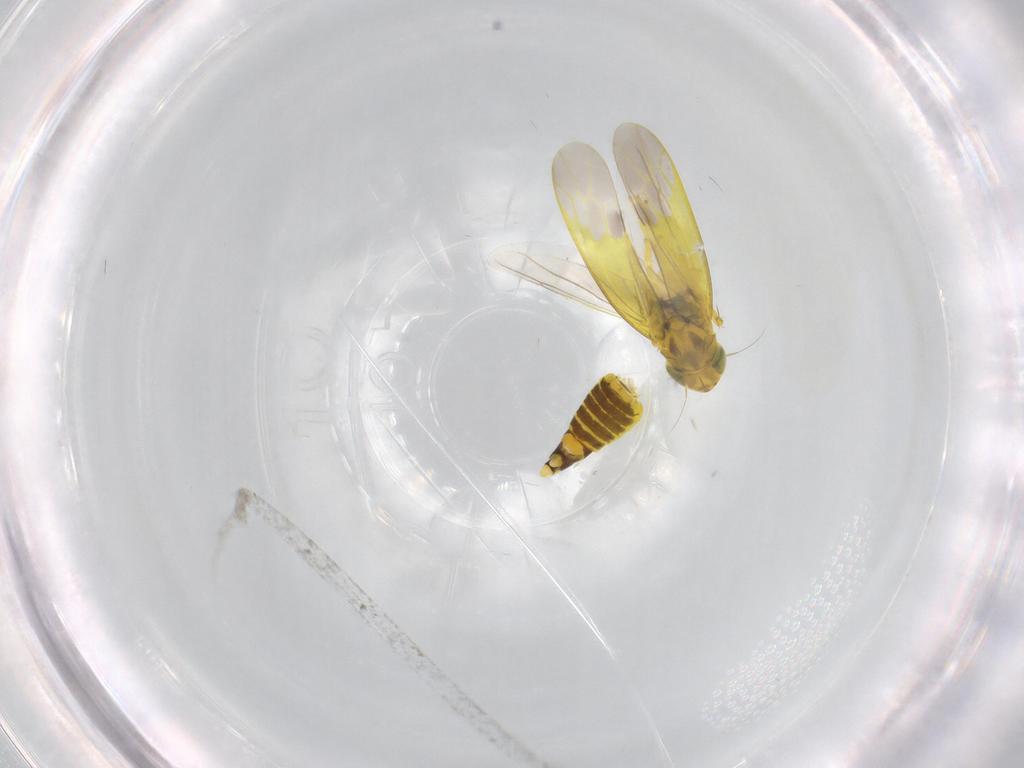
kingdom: Animalia
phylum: Arthropoda
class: Insecta
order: Hemiptera
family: Cicadellidae
